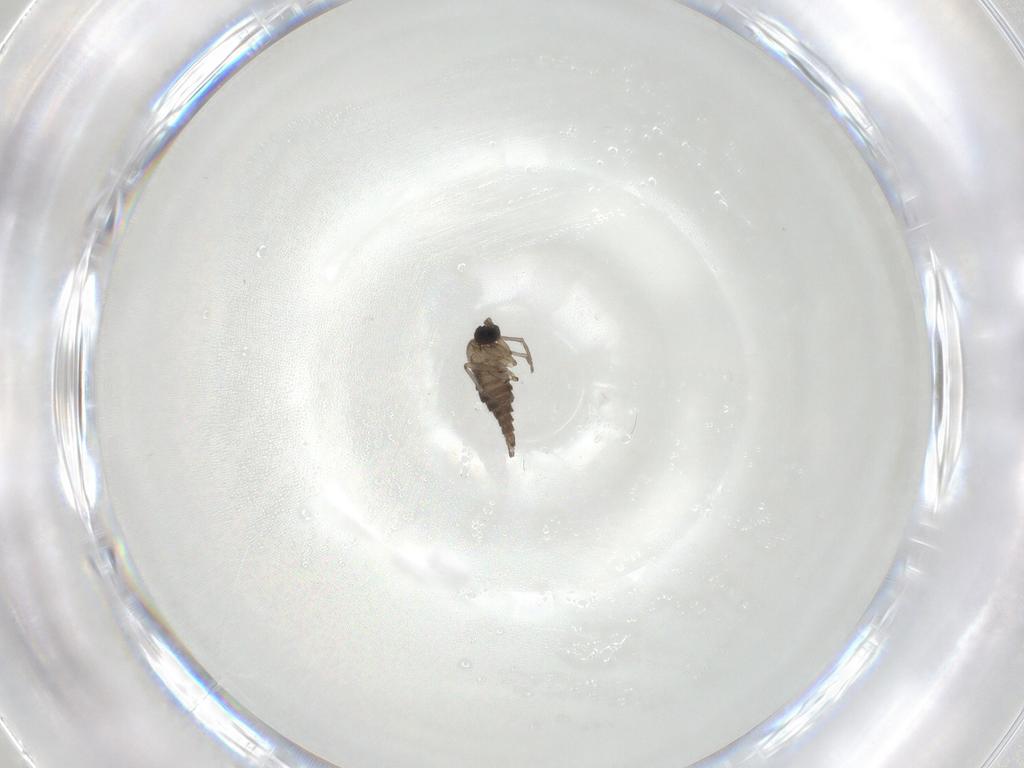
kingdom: Animalia
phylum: Arthropoda
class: Insecta
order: Diptera
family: Sciaridae
